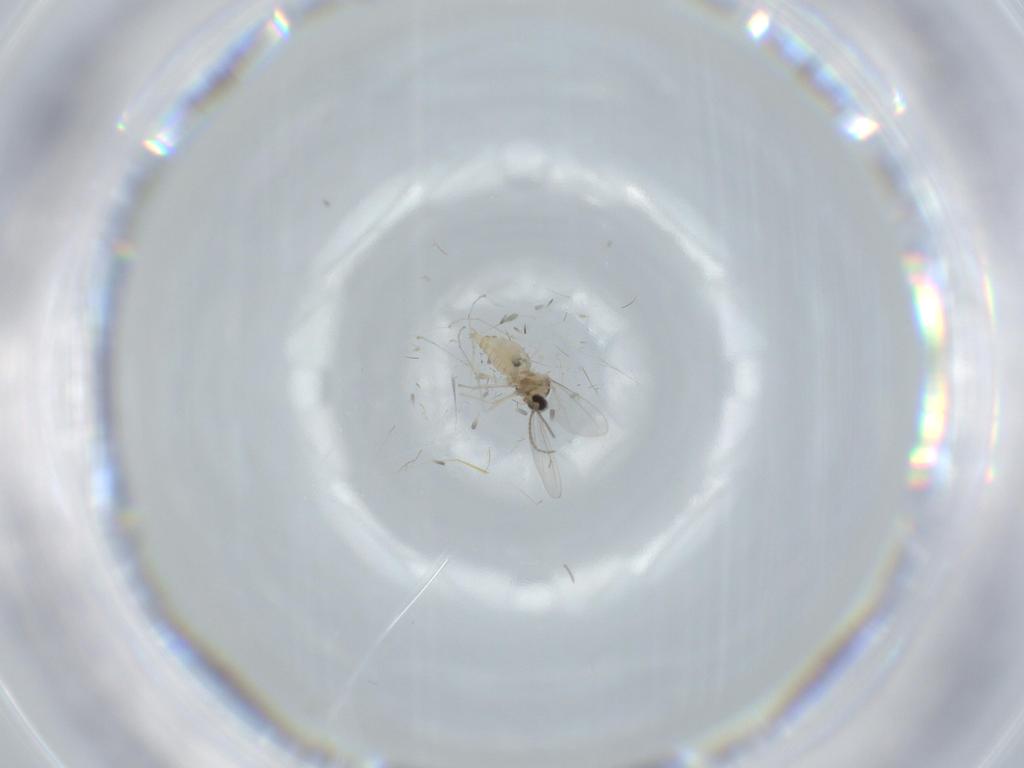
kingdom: Animalia
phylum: Arthropoda
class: Insecta
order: Diptera
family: Cecidomyiidae
